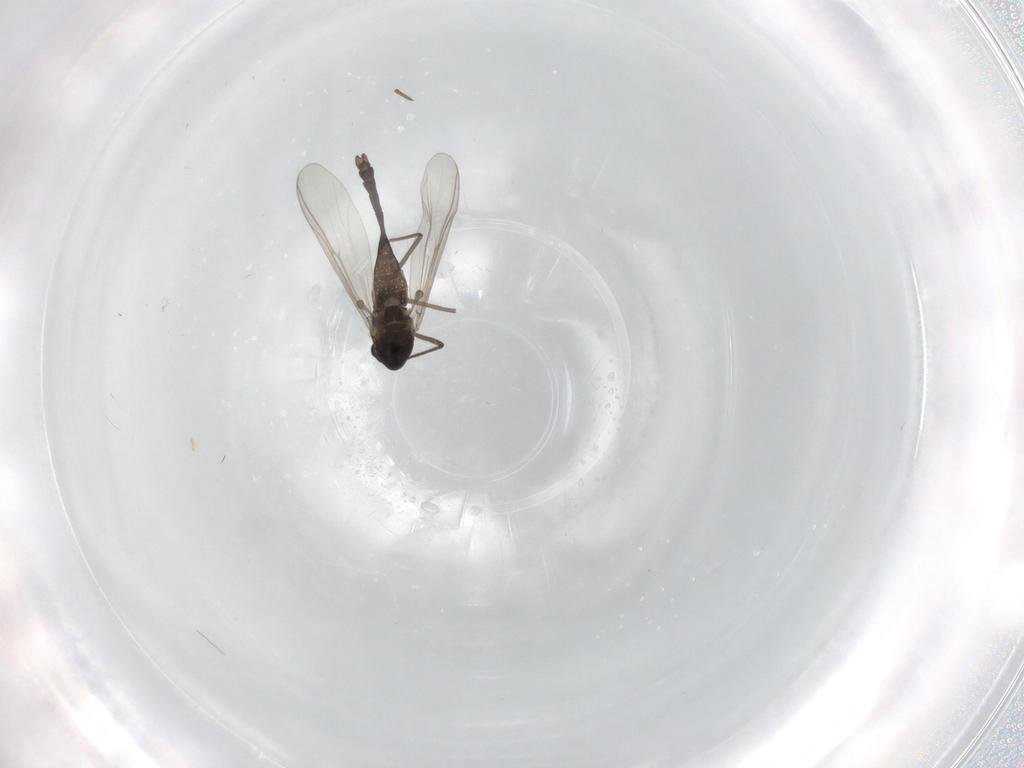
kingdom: Animalia
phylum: Arthropoda
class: Insecta
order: Diptera
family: Chironomidae
